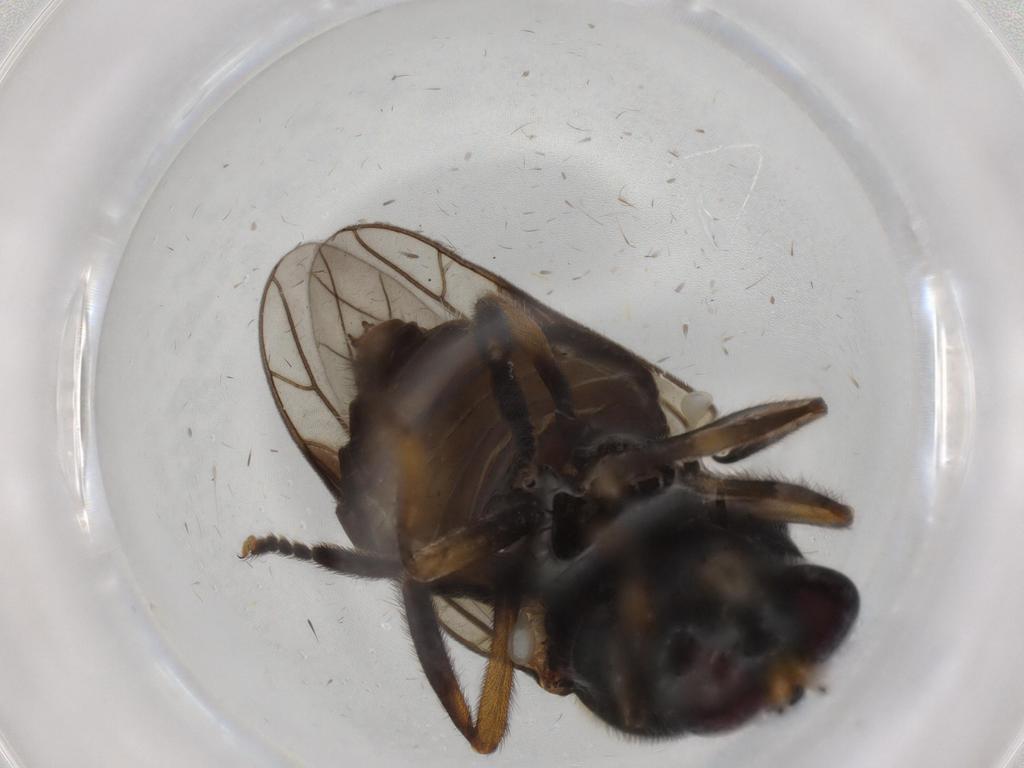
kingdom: Animalia
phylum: Arthropoda
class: Insecta
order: Diptera
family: Stratiomyidae
